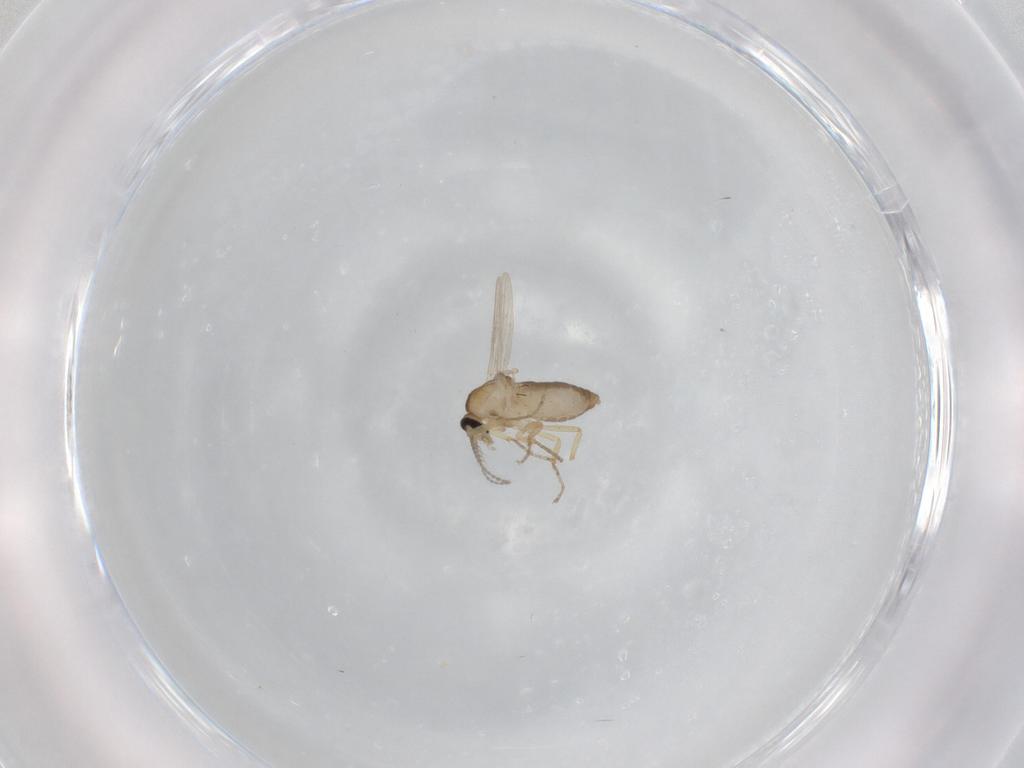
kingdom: Animalia
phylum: Arthropoda
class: Insecta
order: Diptera
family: Ceratopogonidae
